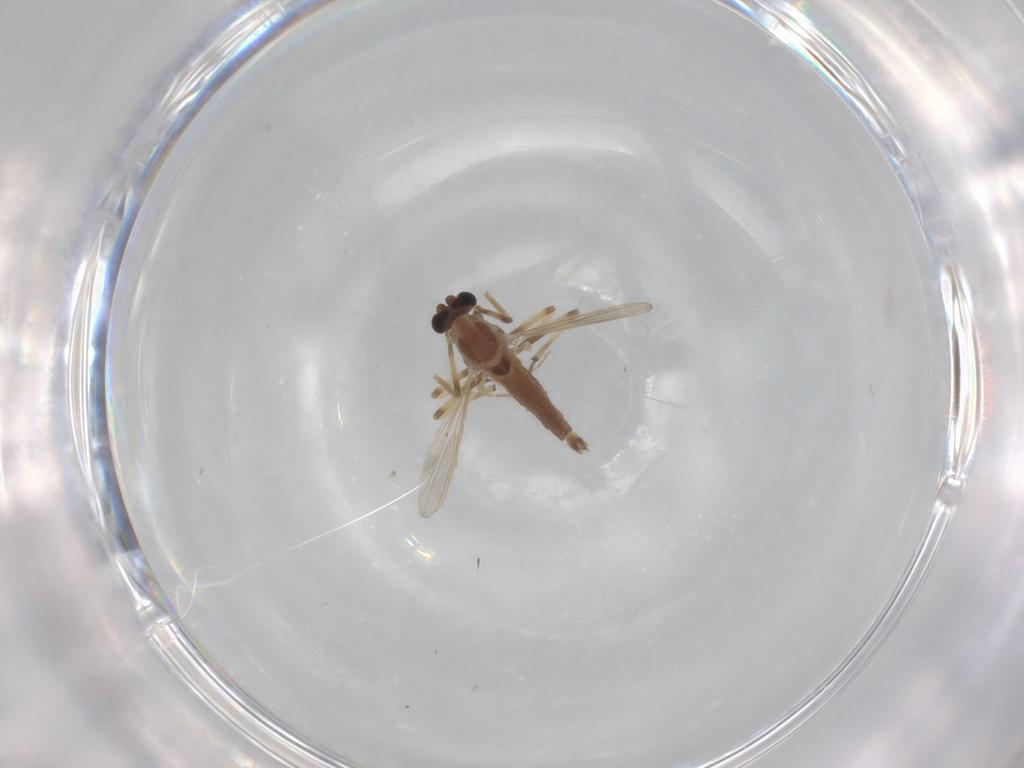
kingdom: Animalia
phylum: Arthropoda
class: Insecta
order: Diptera
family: Chironomidae
